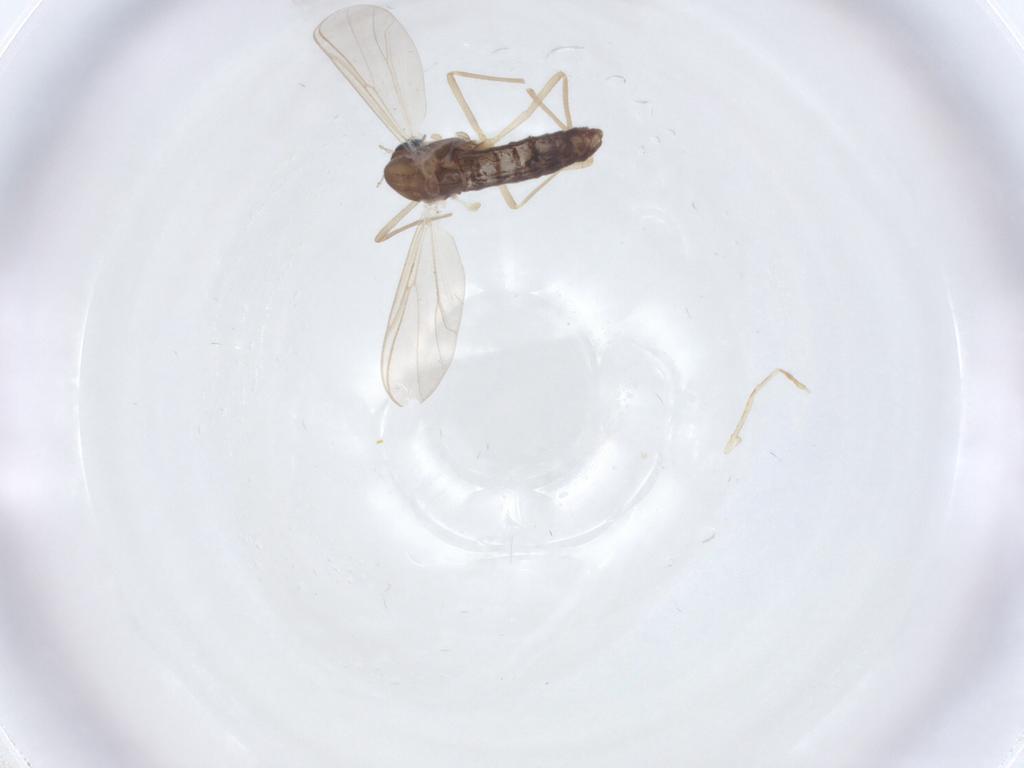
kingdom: Animalia
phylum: Arthropoda
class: Insecta
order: Diptera
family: Chironomidae
